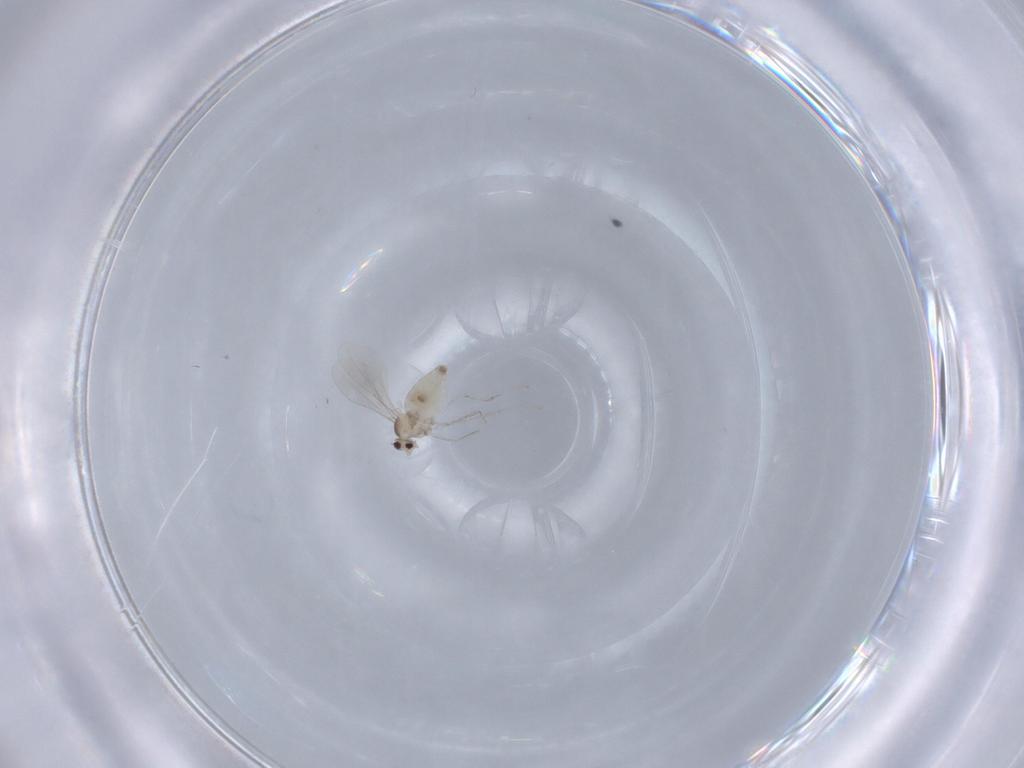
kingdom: Animalia
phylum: Arthropoda
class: Insecta
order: Diptera
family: Cecidomyiidae
